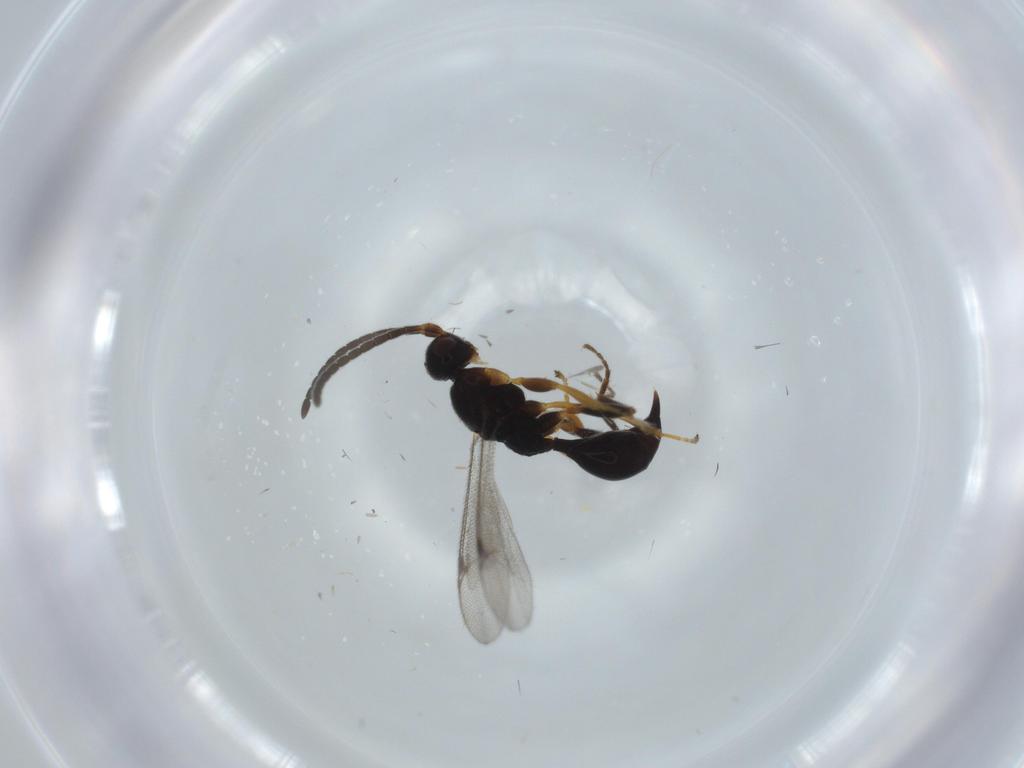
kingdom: Animalia
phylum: Arthropoda
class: Insecta
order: Hymenoptera
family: Proctotrupidae
